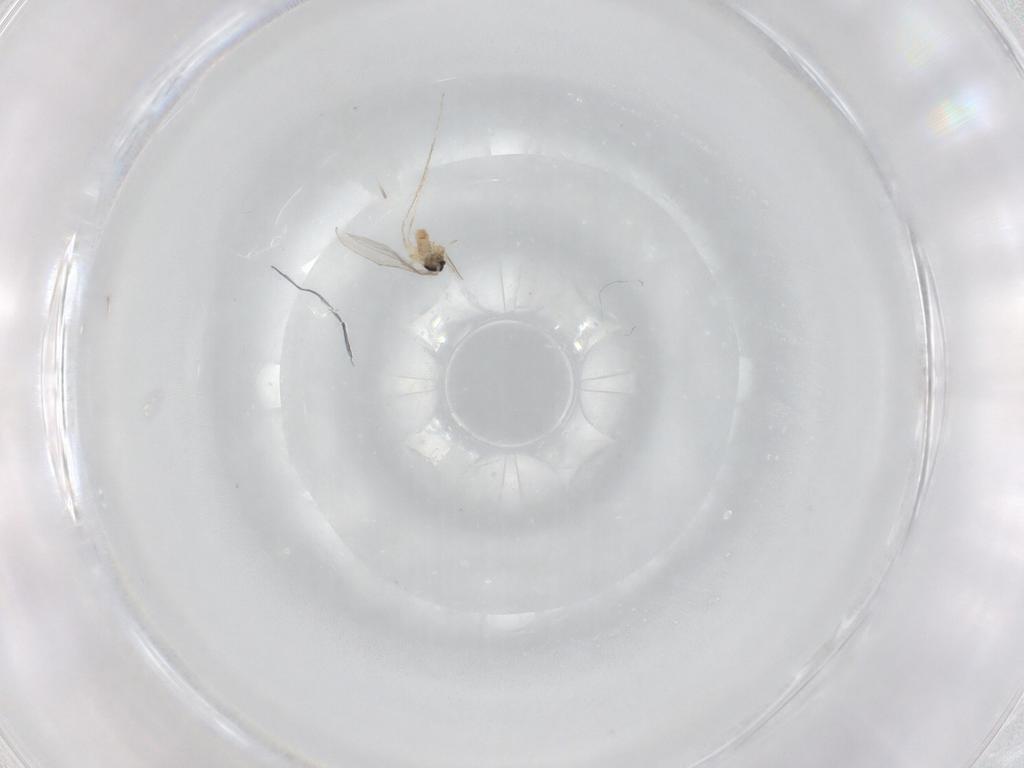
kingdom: Animalia
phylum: Arthropoda
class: Insecta
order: Diptera
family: Cecidomyiidae
